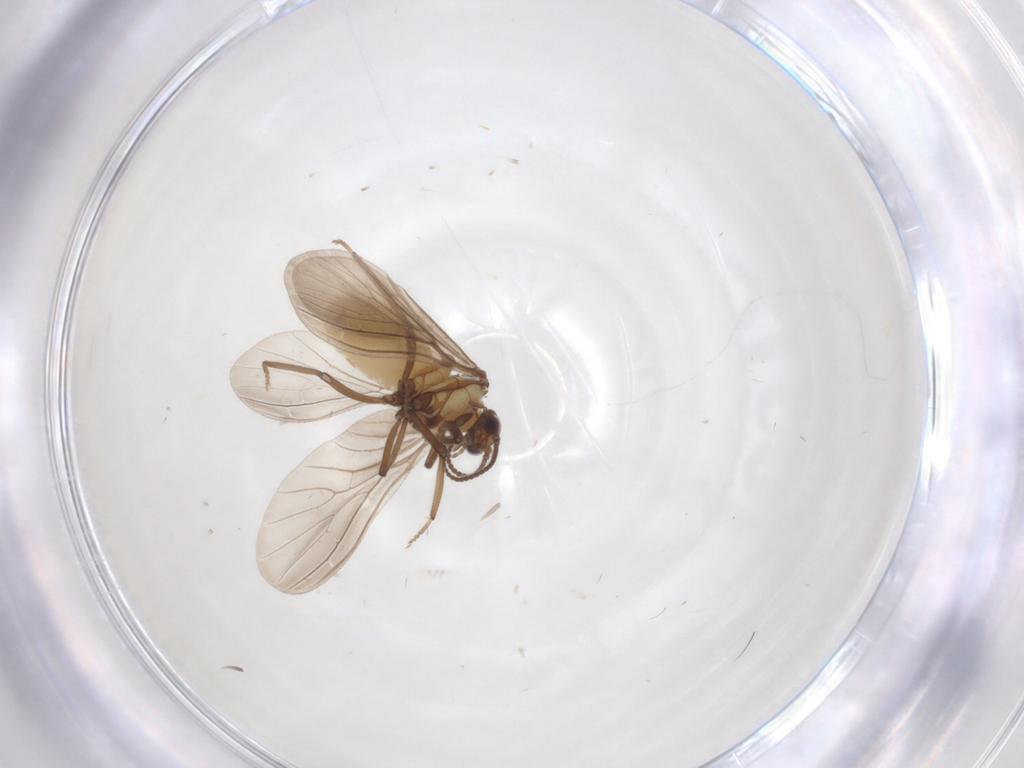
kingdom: Animalia
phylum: Arthropoda
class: Insecta
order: Neuroptera
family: Coniopterygidae
